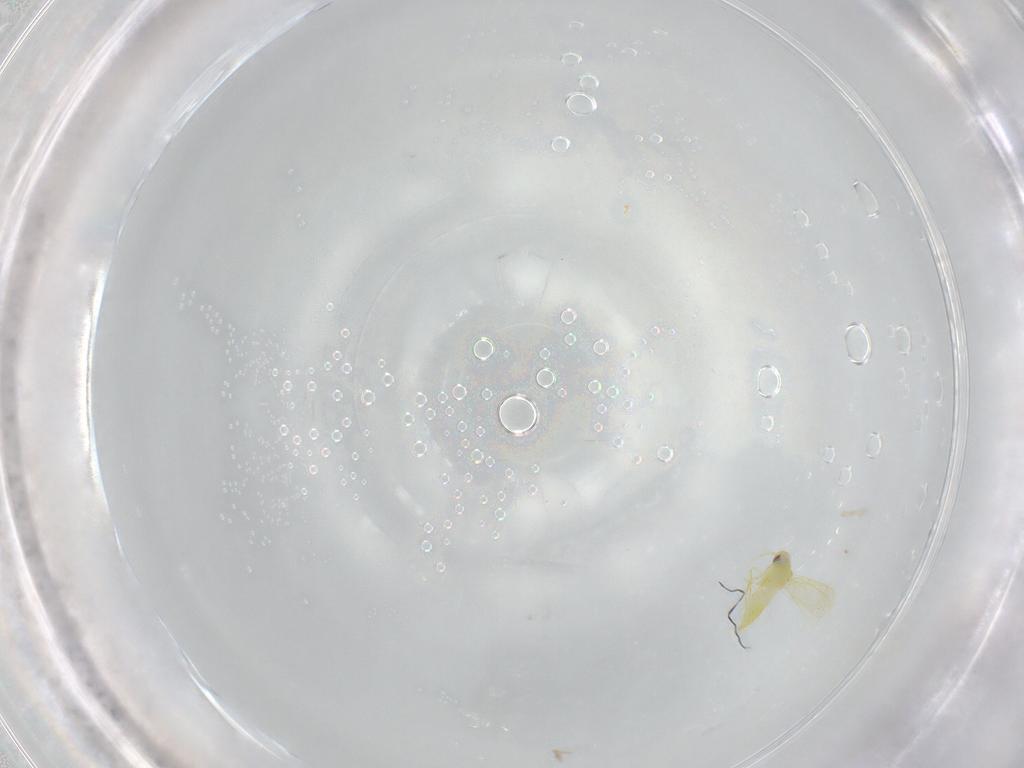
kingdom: Animalia
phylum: Arthropoda
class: Insecta
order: Hemiptera
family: Aleyrodidae
